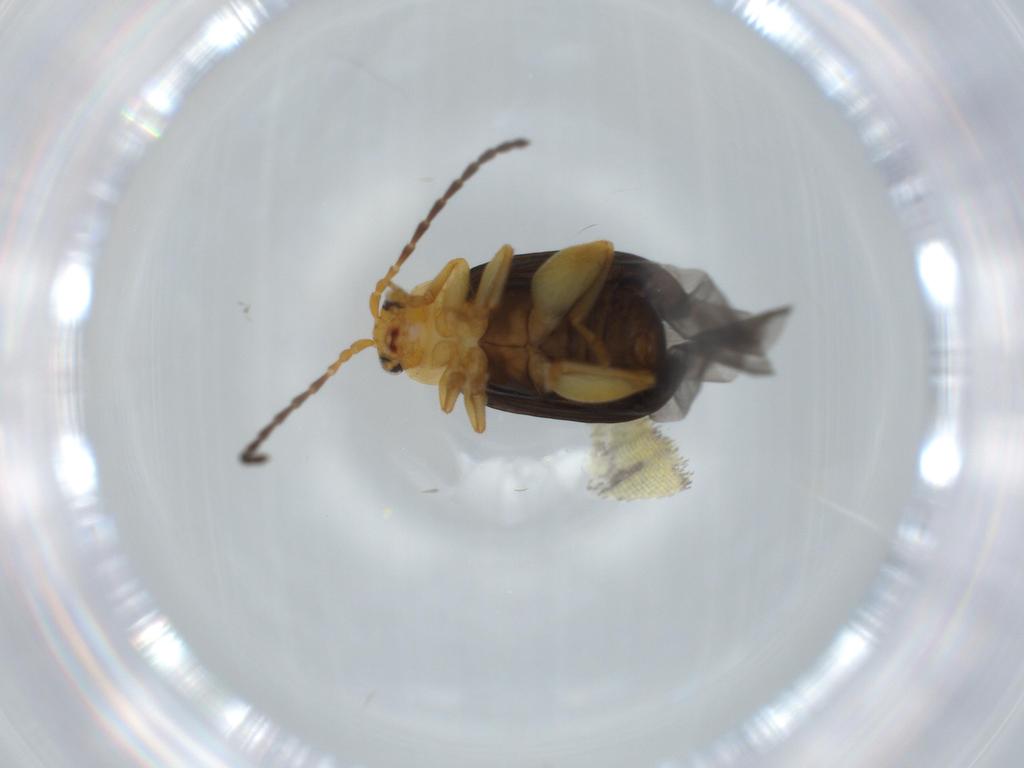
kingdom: Animalia
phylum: Arthropoda
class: Insecta
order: Coleoptera
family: Chrysomelidae
